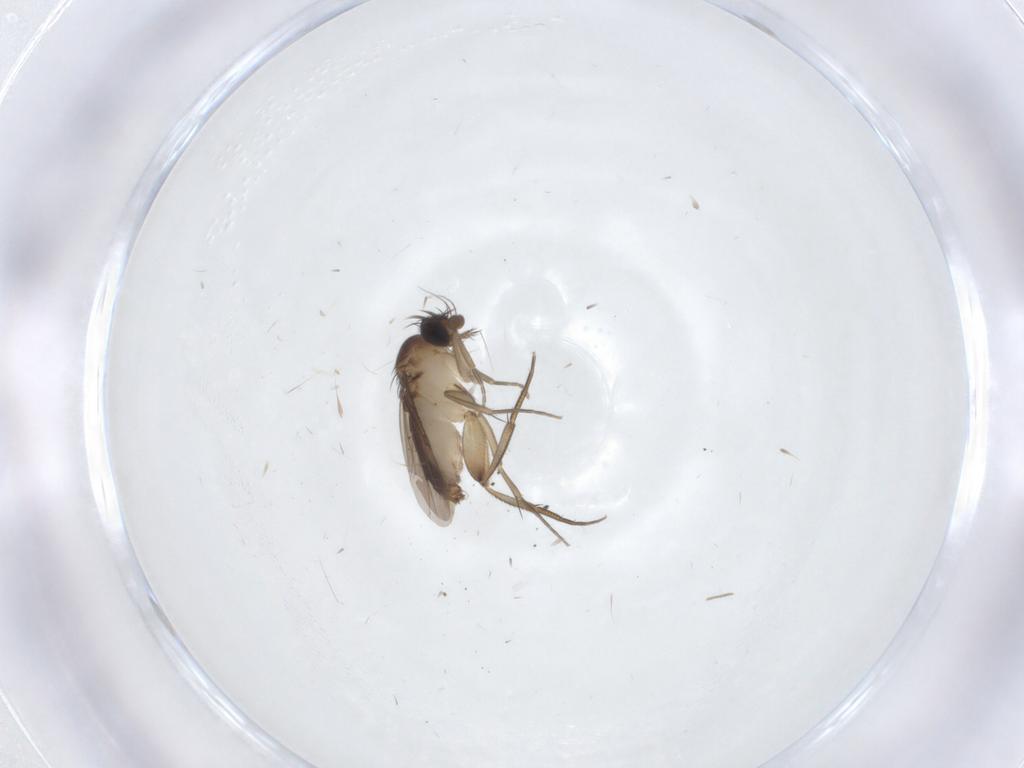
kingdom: Animalia
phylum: Arthropoda
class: Insecta
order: Diptera
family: Phoridae
